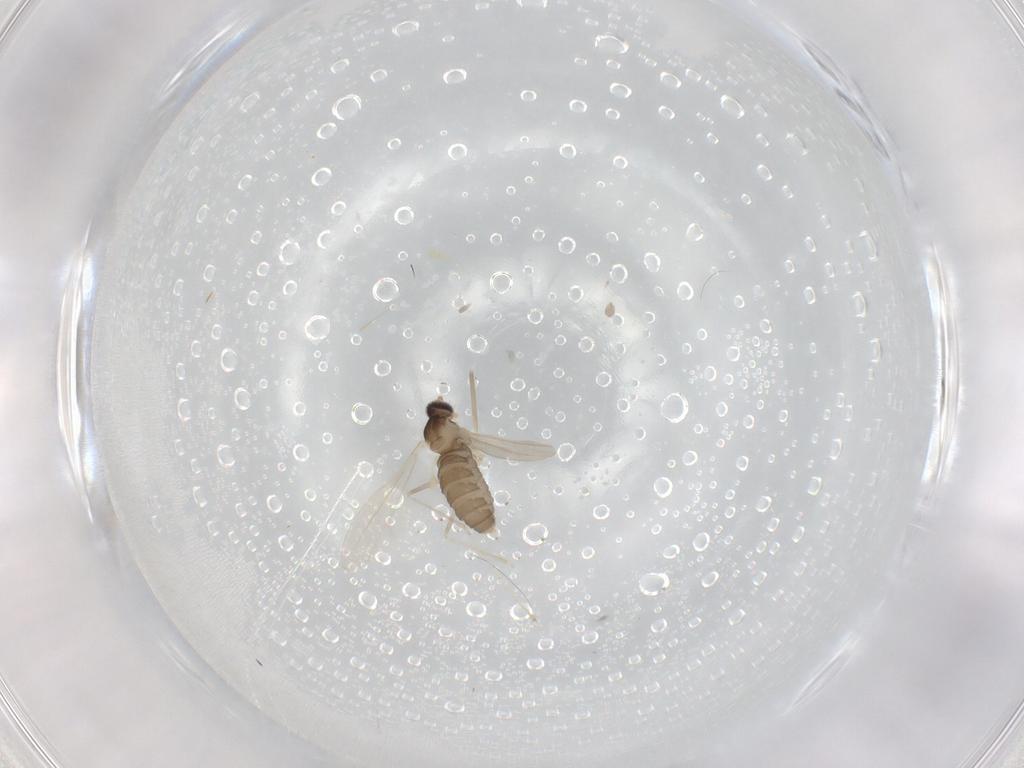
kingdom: Animalia
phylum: Arthropoda
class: Insecta
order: Diptera
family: Cecidomyiidae
